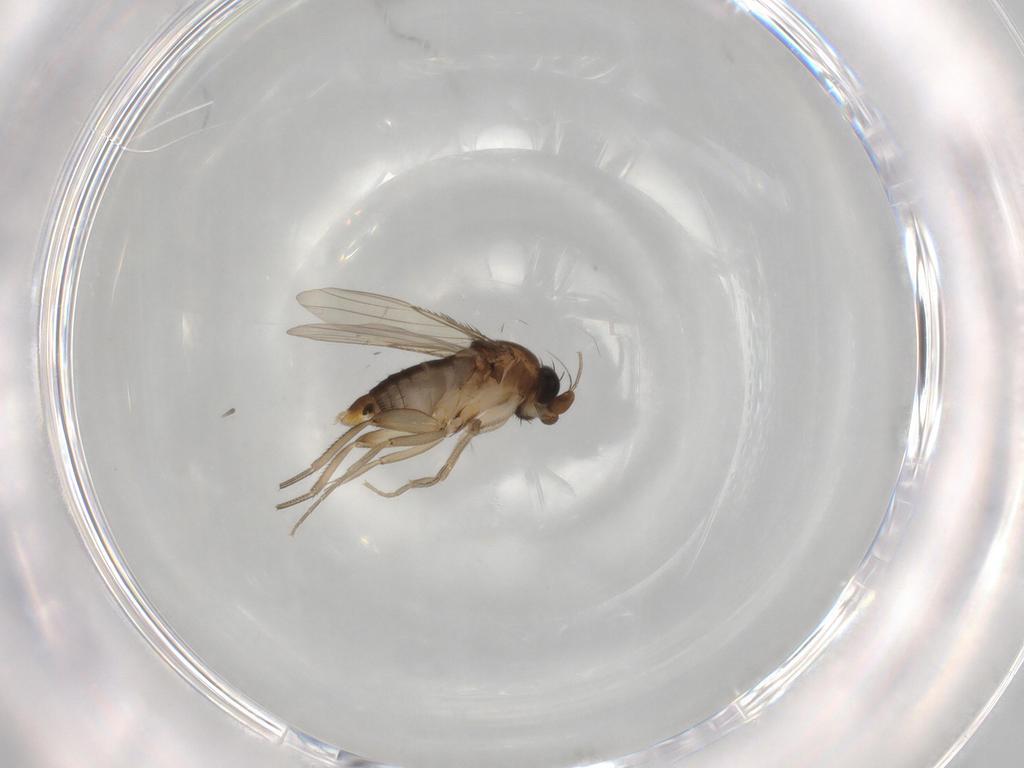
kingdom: Animalia
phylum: Arthropoda
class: Insecta
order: Diptera
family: Phoridae
